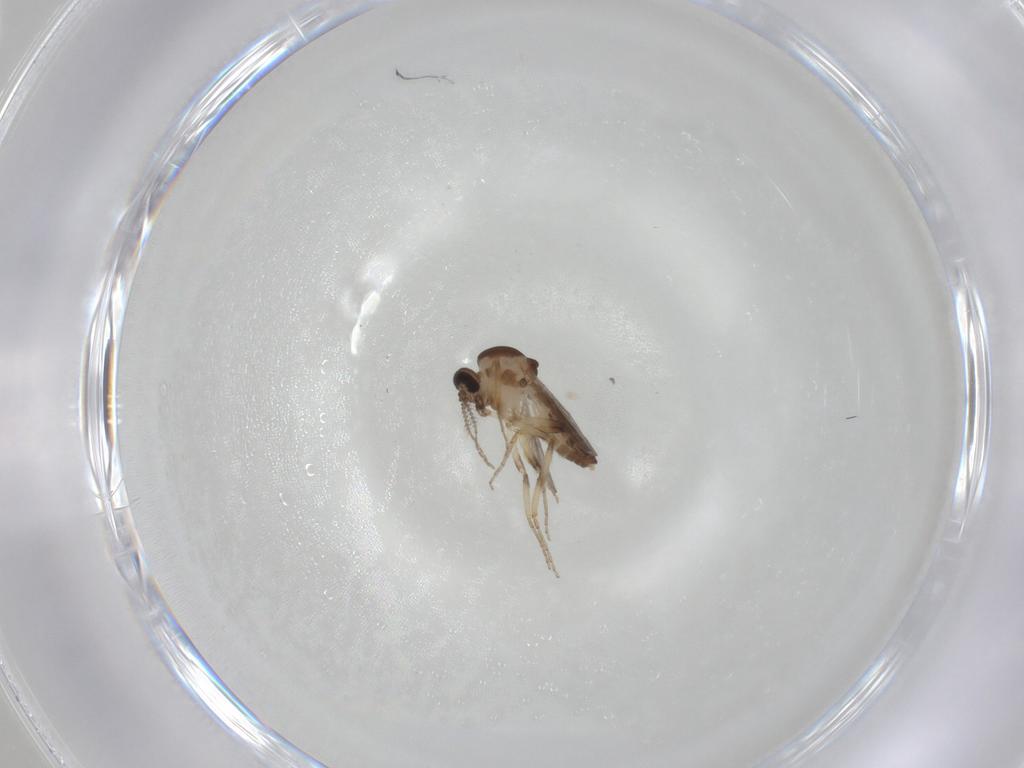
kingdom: Animalia
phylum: Arthropoda
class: Insecta
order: Diptera
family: Ceratopogonidae
